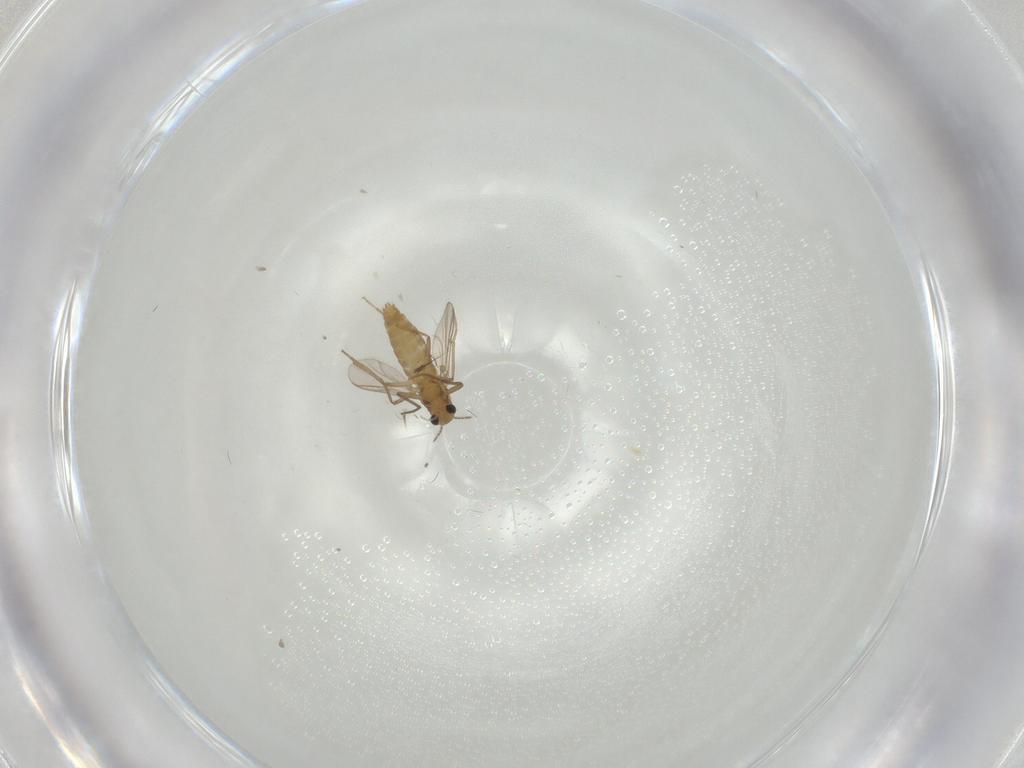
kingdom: Animalia
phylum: Arthropoda
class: Insecta
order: Diptera
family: Chironomidae
